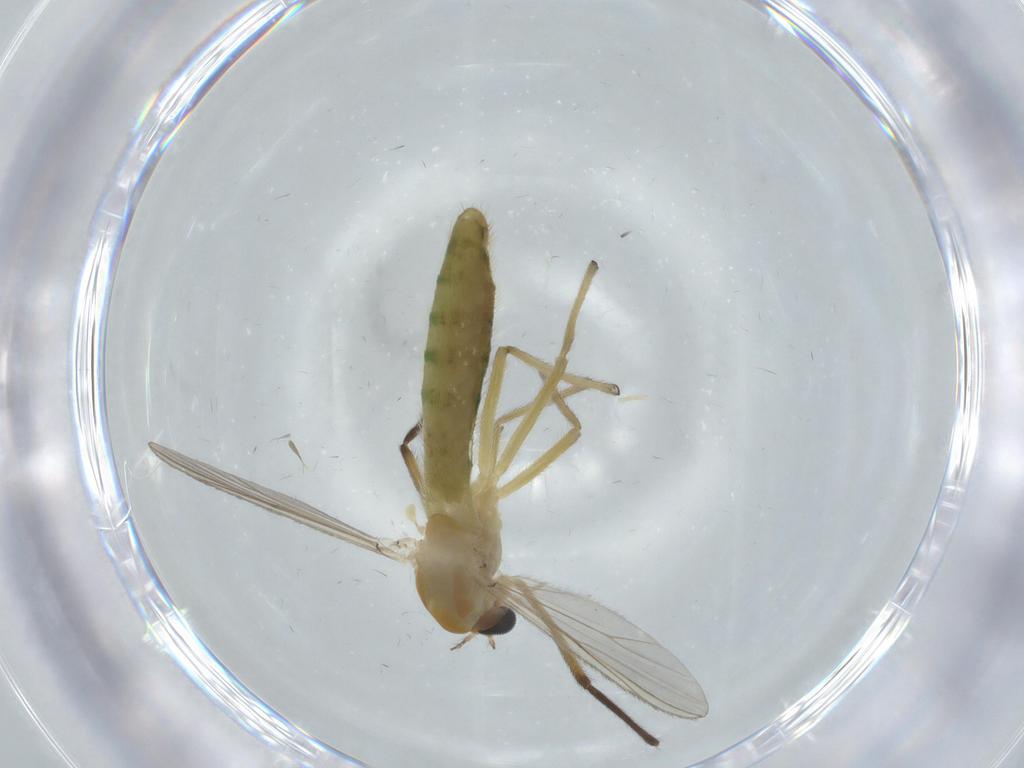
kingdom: Animalia
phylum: Arthropoda
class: Insecta
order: Diptera
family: Chironomidae
